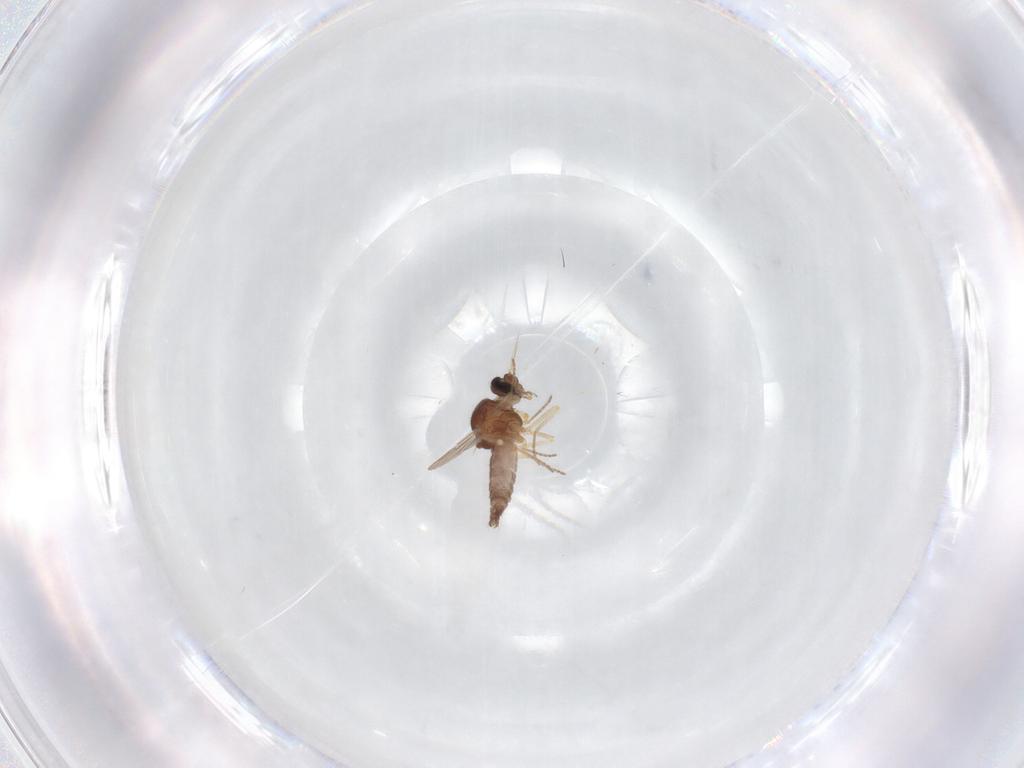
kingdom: Animalia
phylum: Arthropoda
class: Insecta
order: Diptera
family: Ceratopogonidae
